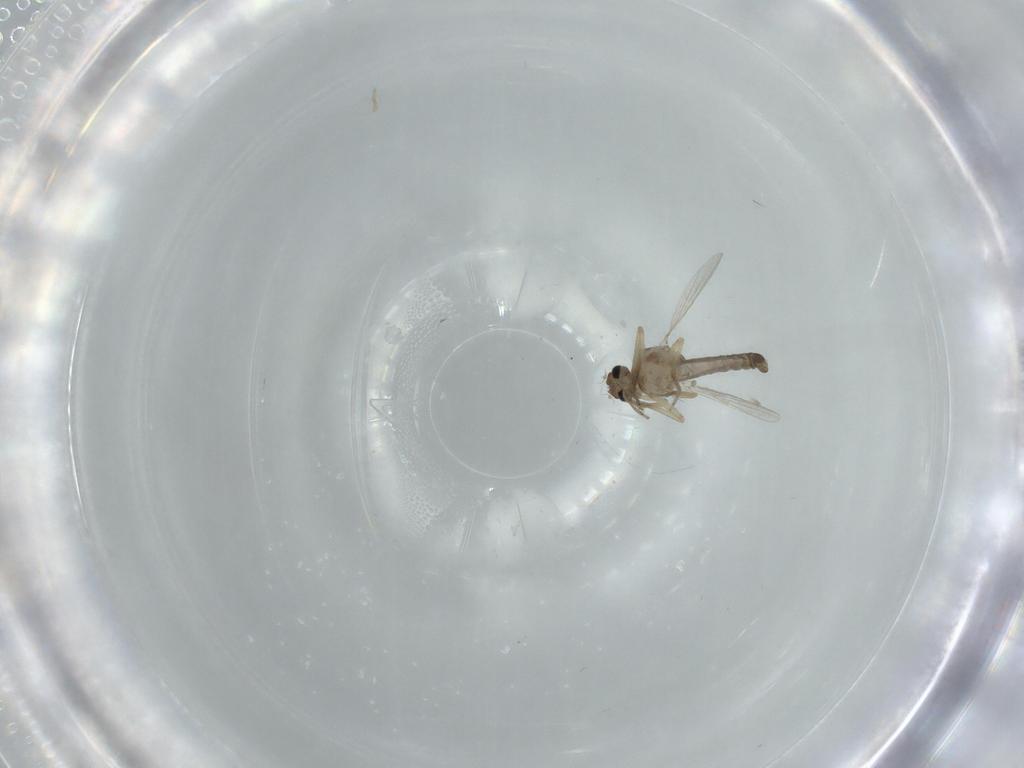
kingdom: Animalia
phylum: Arthropoda
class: Insecta
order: Diptera
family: Ceratopogonidae
